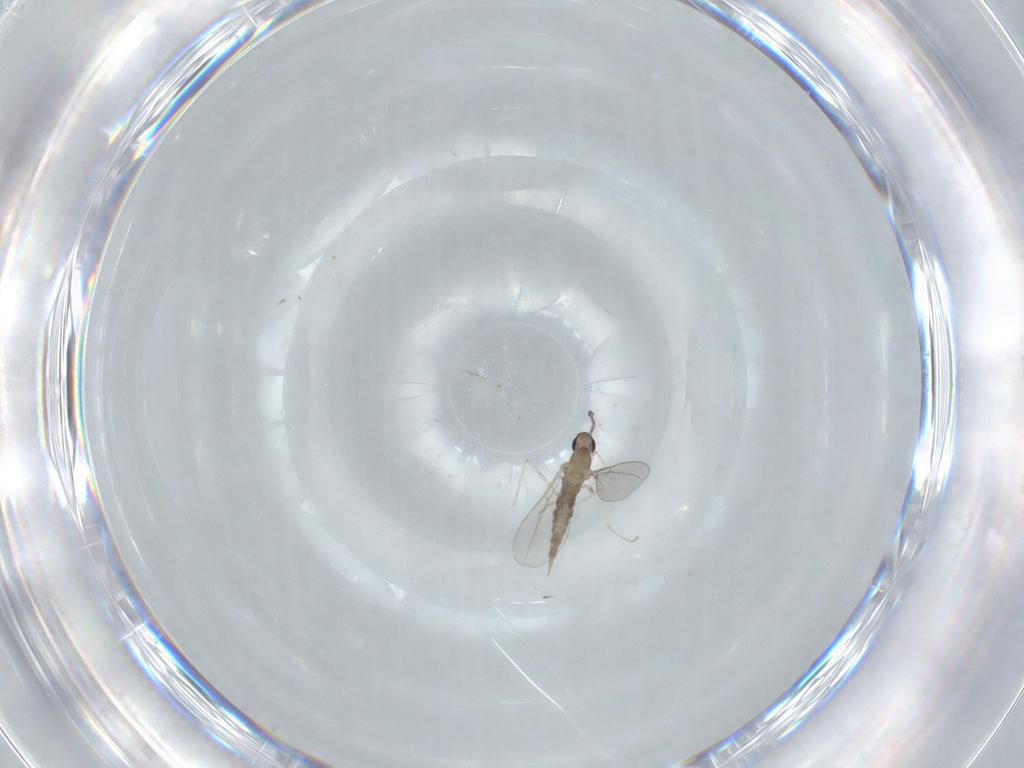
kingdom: Animalia
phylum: Arthropoda
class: Insecta
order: Diptera
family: Cecidomyiidae
